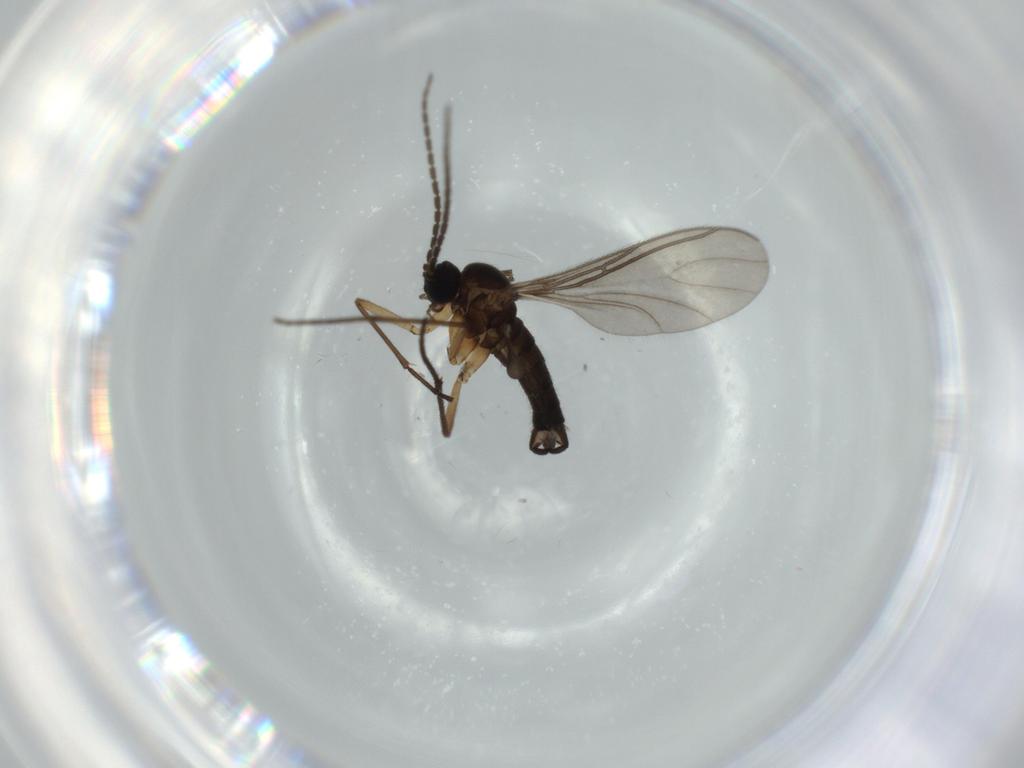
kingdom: Animalia
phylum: Arthropoda
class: Insecta
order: Diptera
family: Sciaridae
